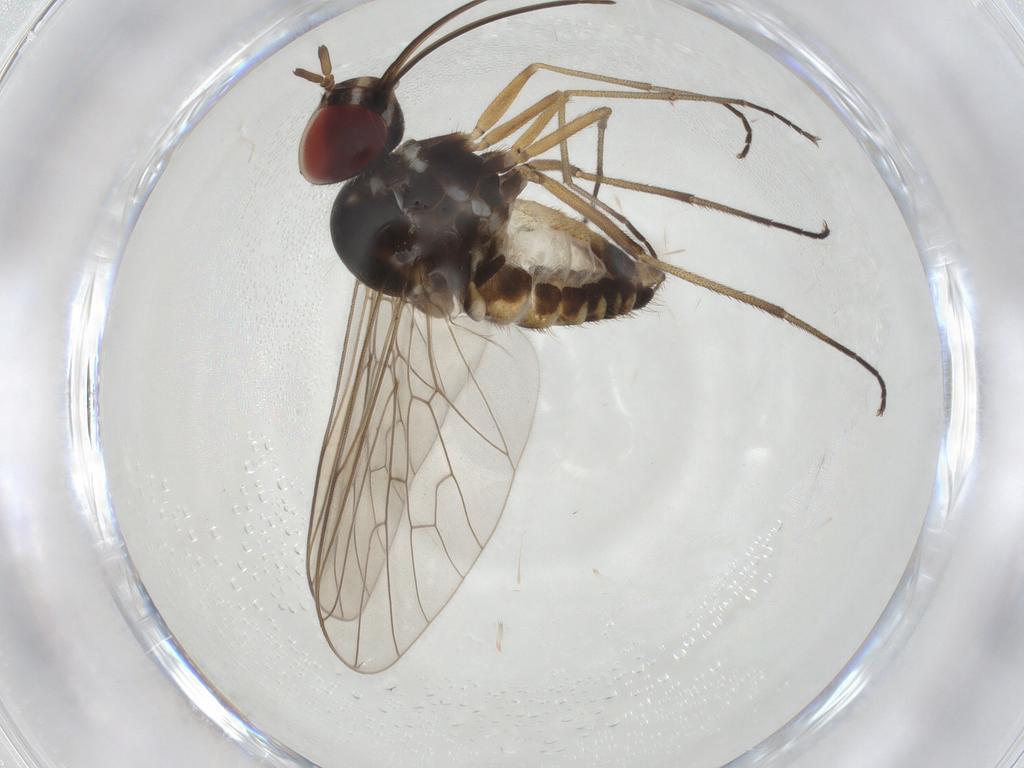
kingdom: Animalia
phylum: Arthropoda
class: Insecta
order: Diptera
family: Bombyliidae
